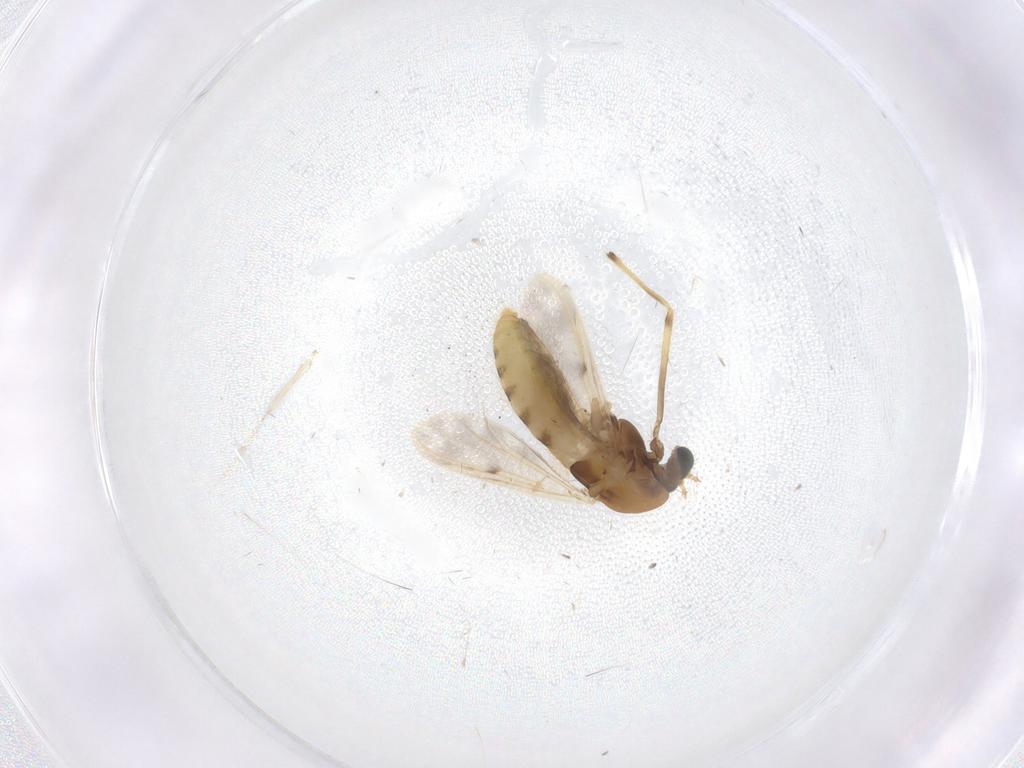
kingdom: Animalia
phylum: Arthropoda
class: Insecta
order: Diptera
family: Chironomidae
